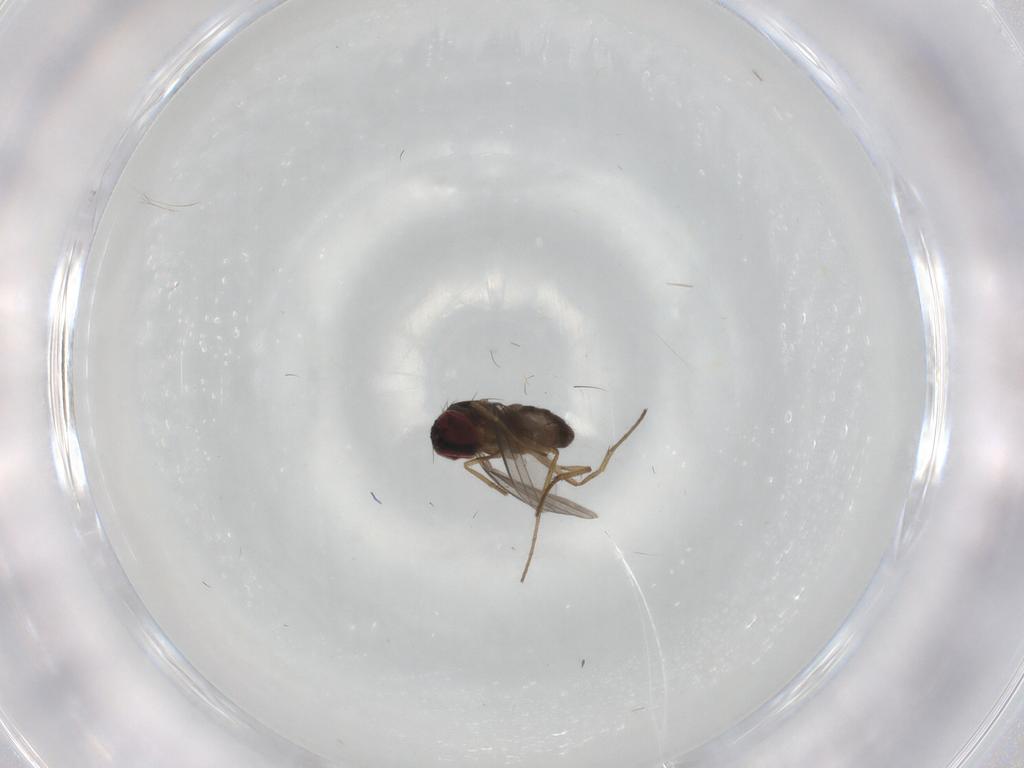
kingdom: Animalia
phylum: Arthropoda
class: Insecta
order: Diptera
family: Dolichopodidae
